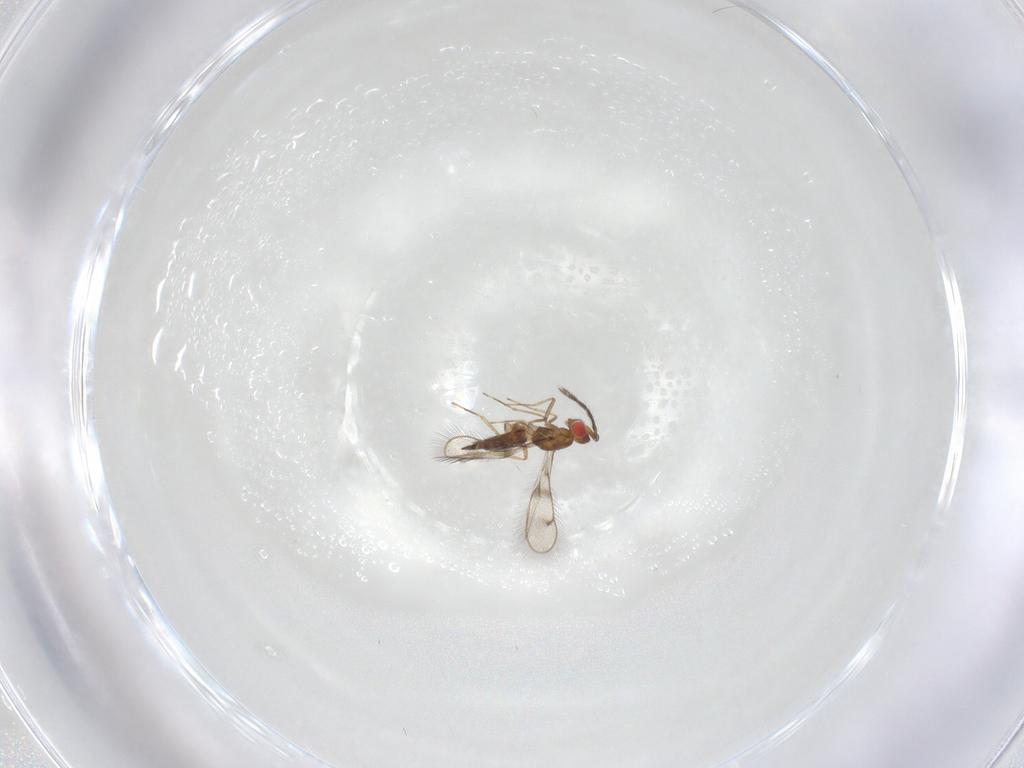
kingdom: Animalia
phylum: Arthropoda
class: Insecta
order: Hymenoptera
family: Eulophidae
